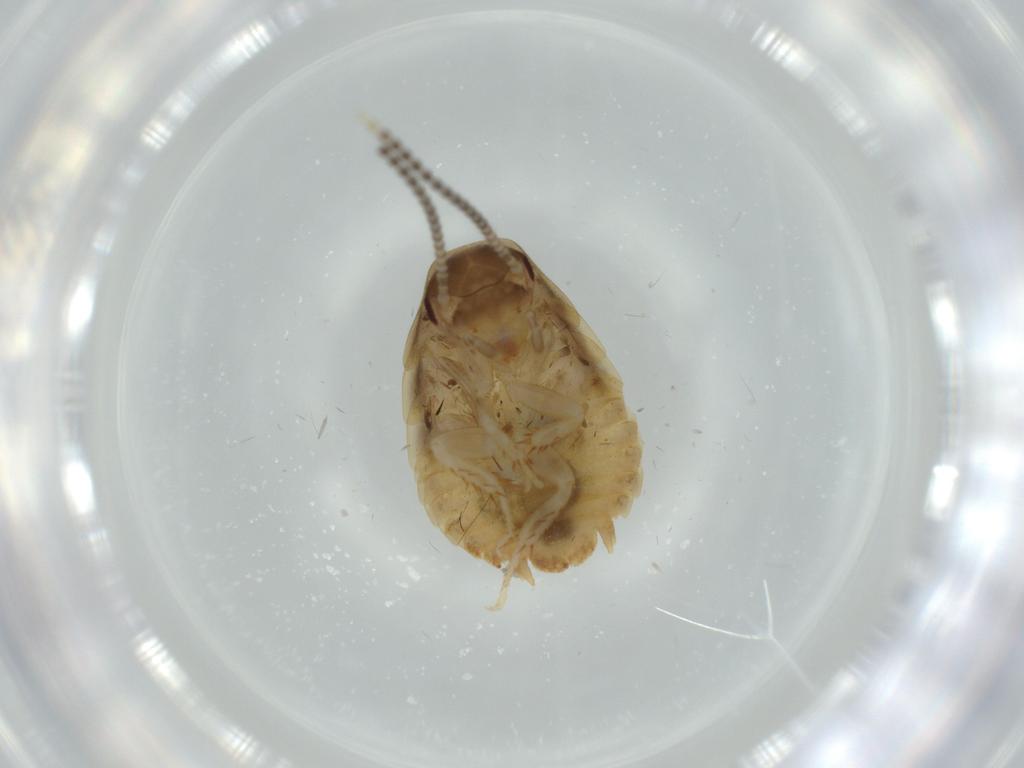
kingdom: Animalia
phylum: Arthropoda
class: Insecta
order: Blattodea
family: Blaberidae
